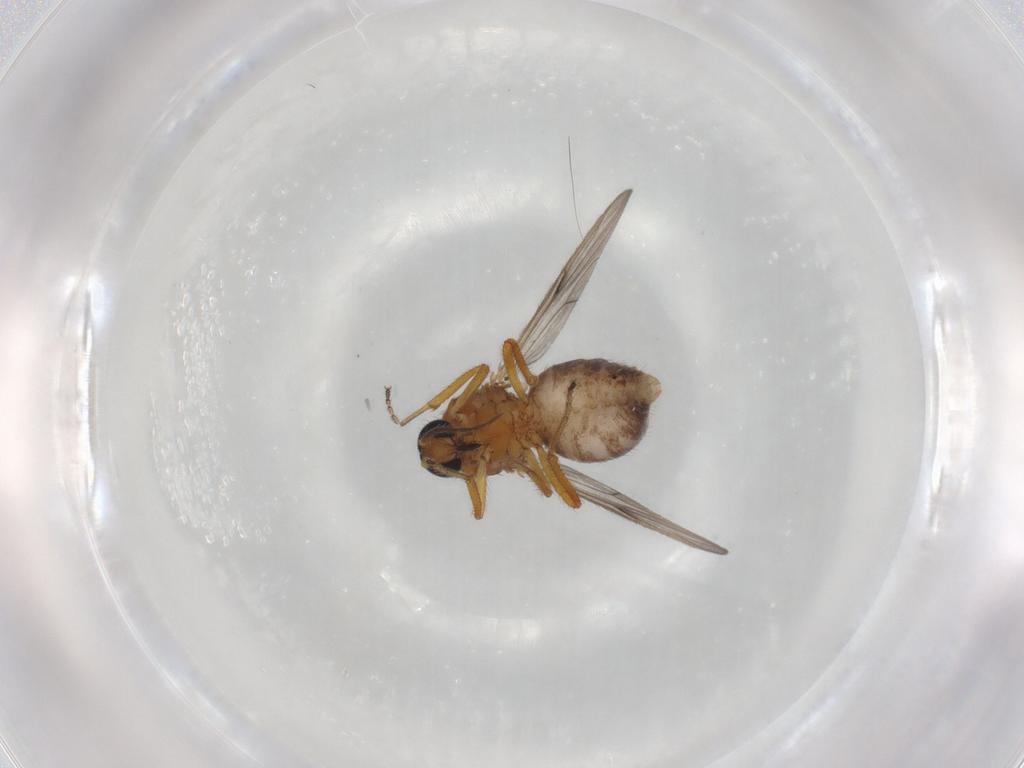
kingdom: Animalia
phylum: Arthropoda
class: Insecta
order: Diptera
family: Ceratopogonidae
